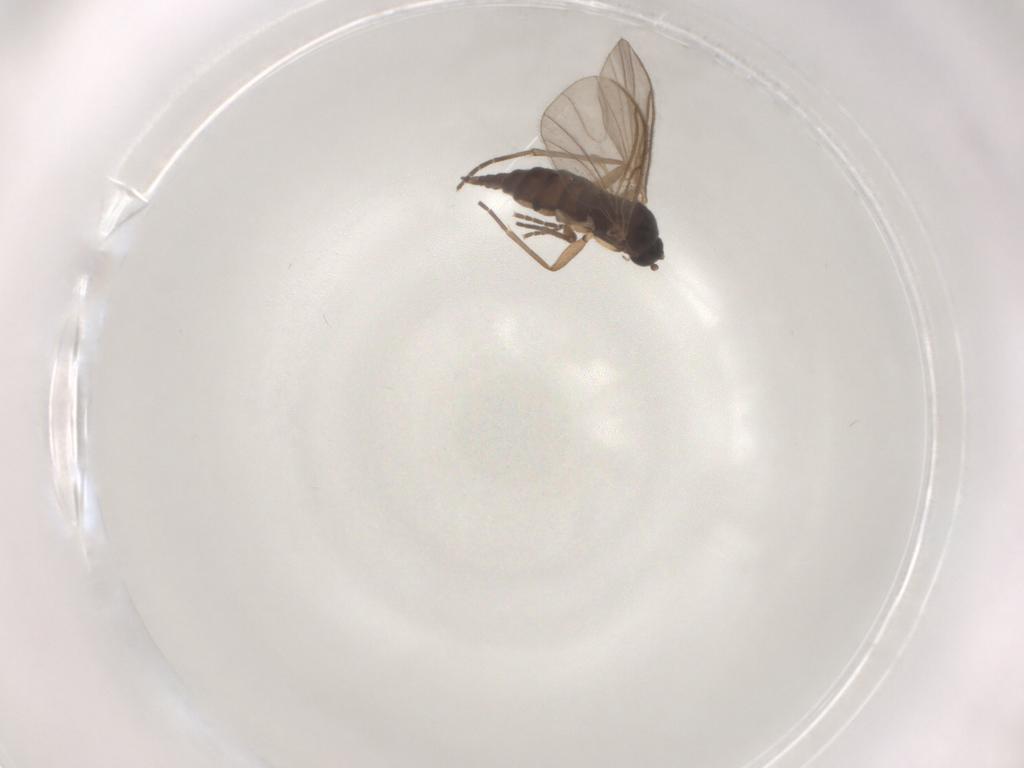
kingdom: Animalia
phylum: Arthropoda
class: Insecta
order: Diptera
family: Sciaridae
